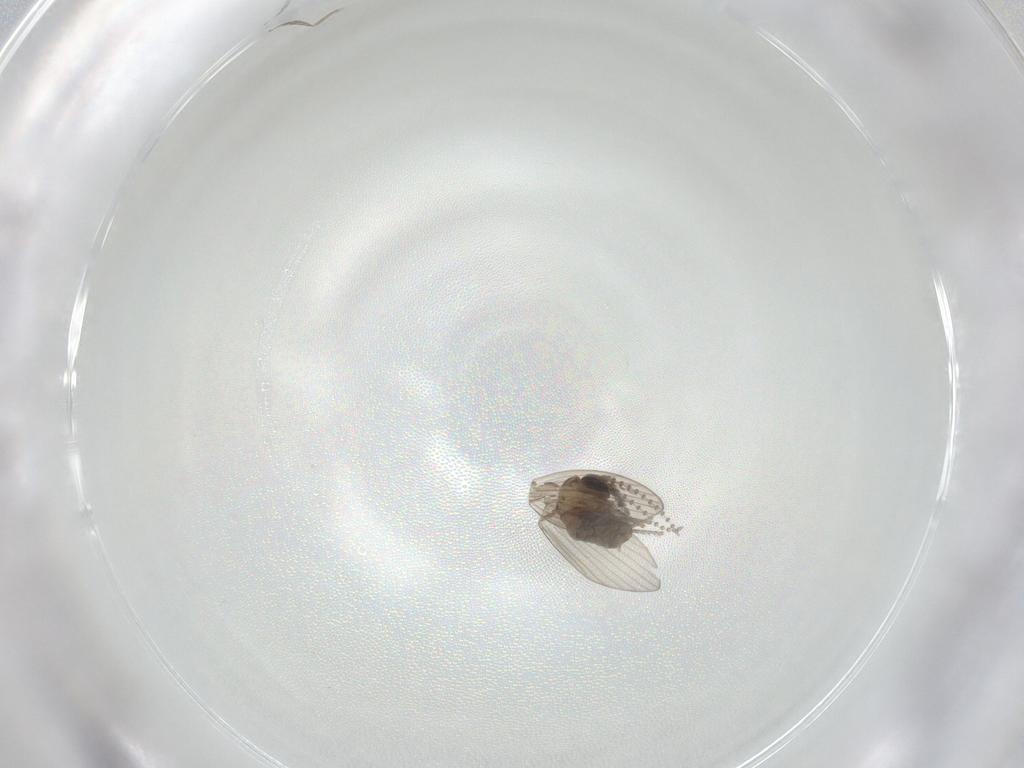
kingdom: Animalia
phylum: Arthropoda
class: Insecta
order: Diptera
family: Psychodidae
